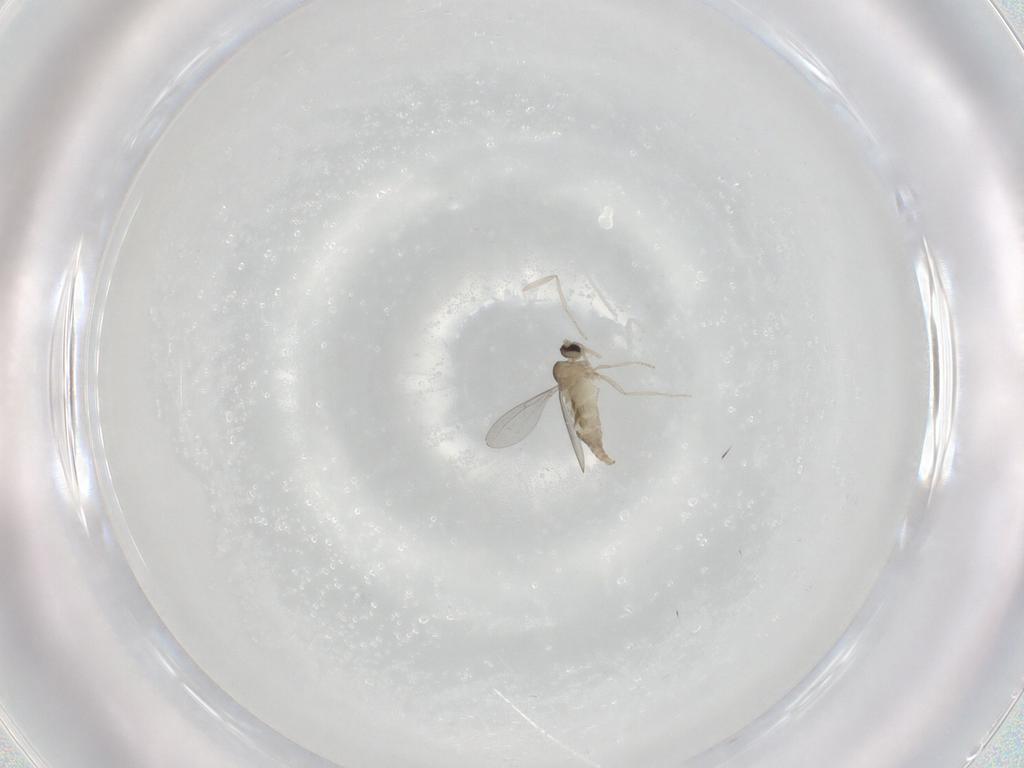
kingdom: Animalia
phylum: Arthropoda
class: Insecta
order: Diptera
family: Cecidomyiidae
